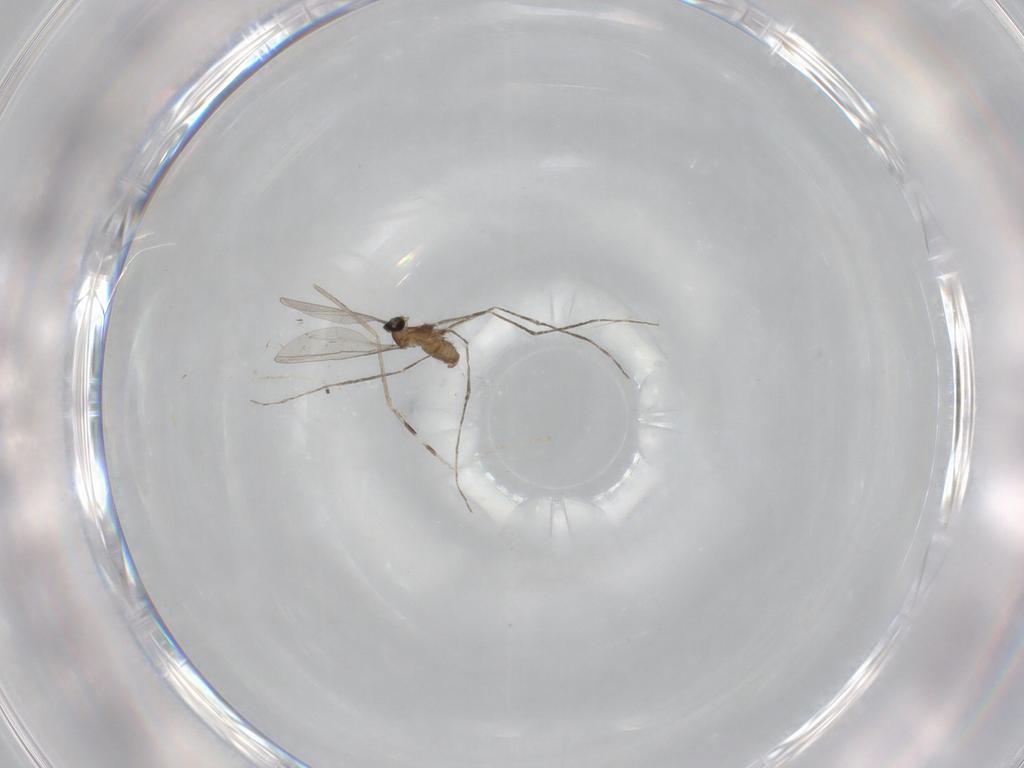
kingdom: Animalia
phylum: Arthropoda
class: Insecta
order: Diptera
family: Cecidomyiidae
